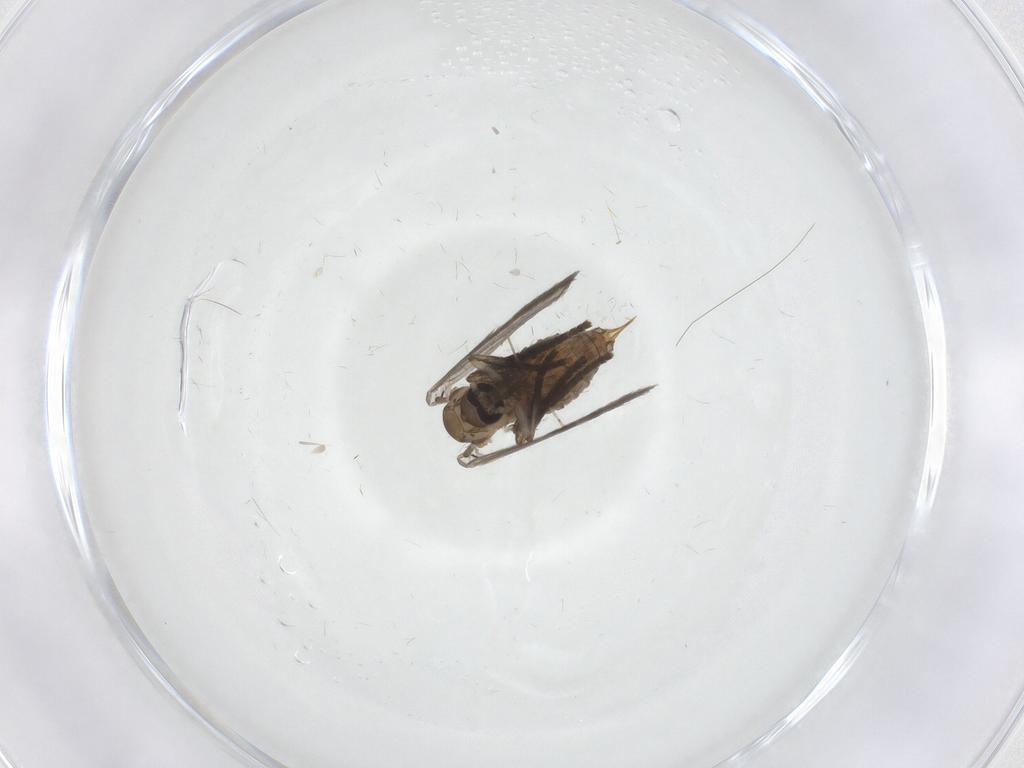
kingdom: Animalia
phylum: Arthropoda
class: Insecta
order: Diptera
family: Psychodidae
